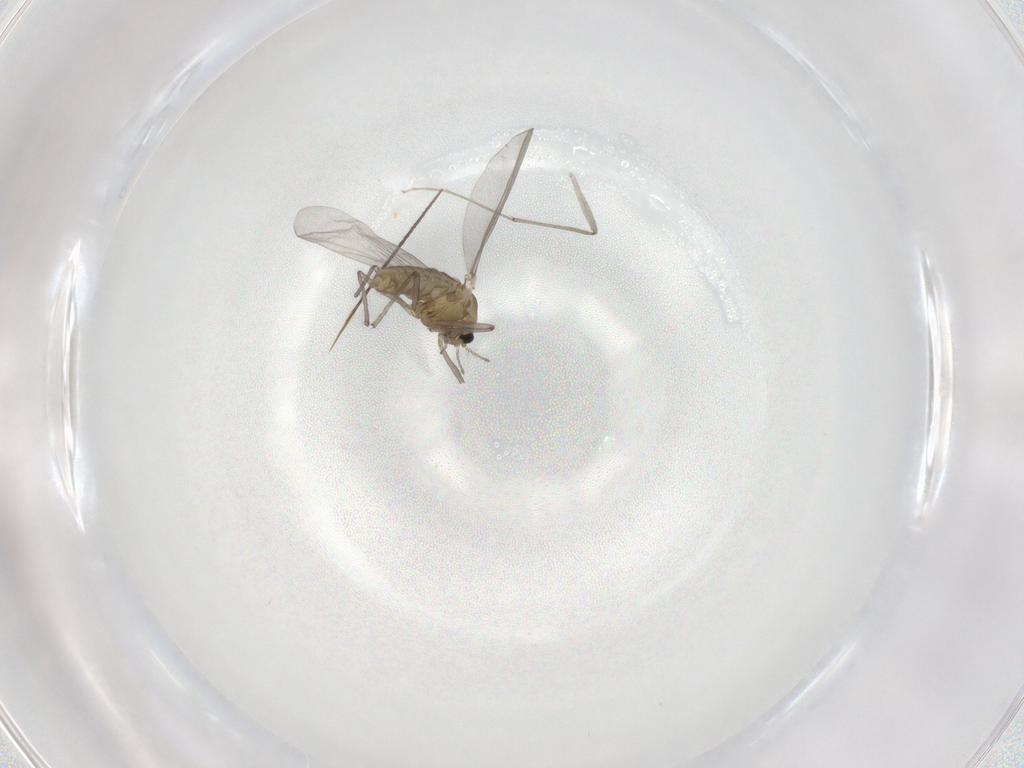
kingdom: Animalia
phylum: Arthropoda
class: Insecta
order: Diptera
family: Chironomidae
